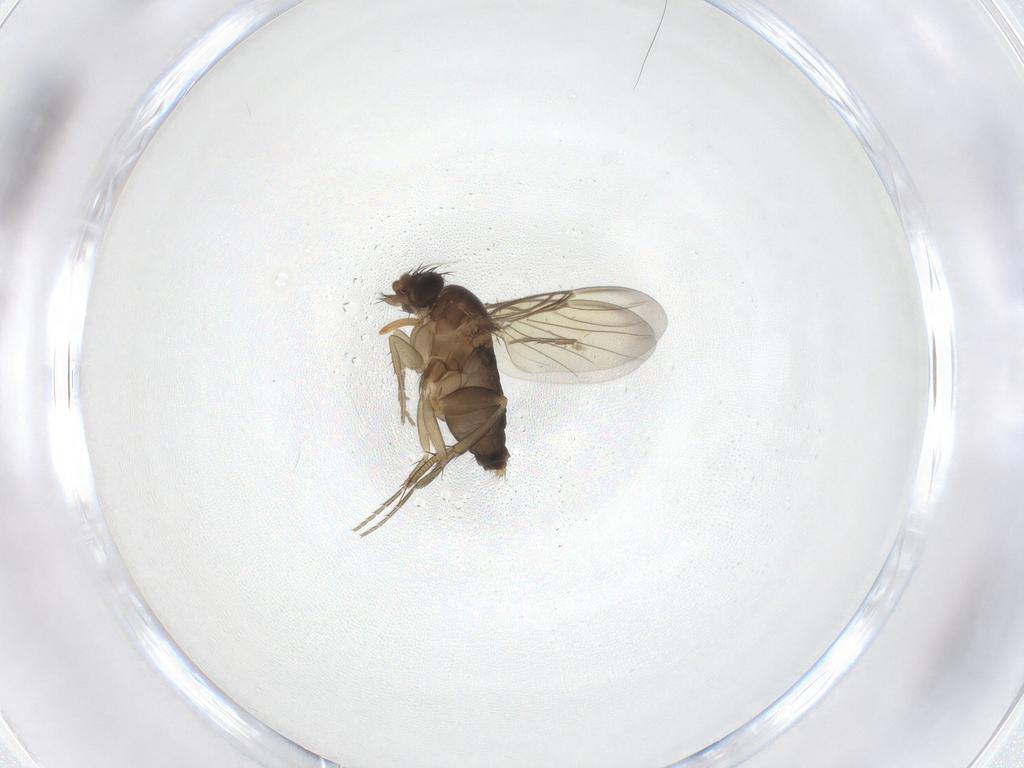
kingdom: Animalia
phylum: Arthropoda
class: Insecta
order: Diptera
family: Phoridae
